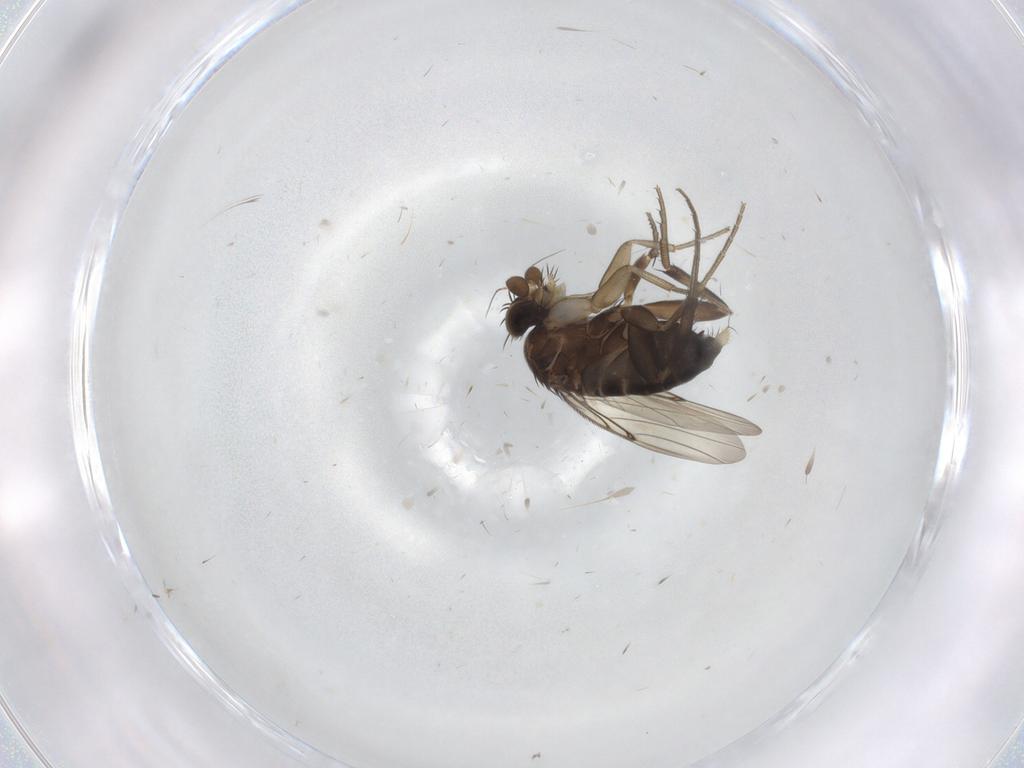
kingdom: Animalia
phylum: Arthropoda
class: Insecta
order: Diptera
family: Phoridae
